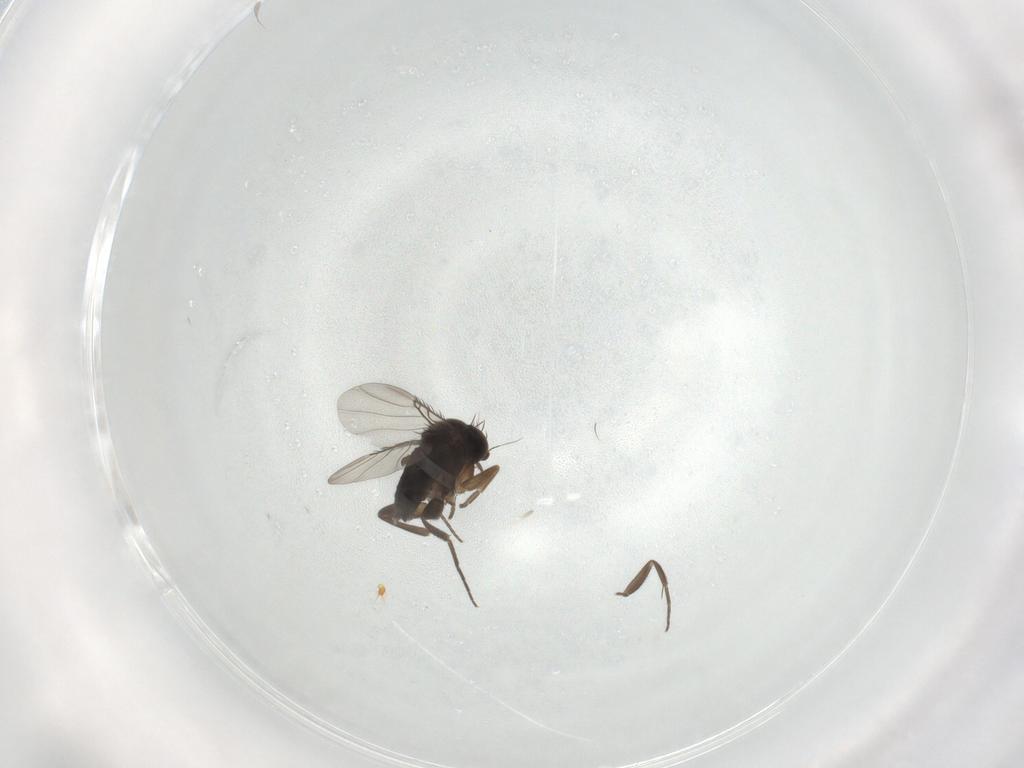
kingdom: Animalia
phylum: Arthropoda
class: Insecta
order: Diptera
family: Phoridae
